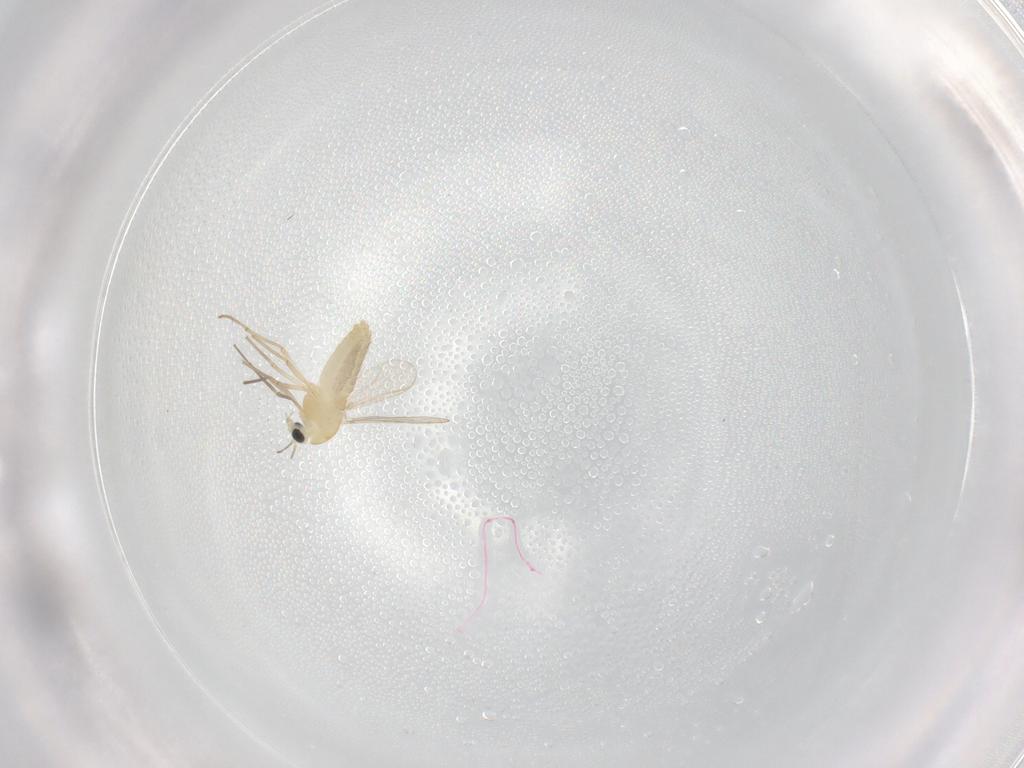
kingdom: Animalia
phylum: Arthropoda
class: Insecta
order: Diptera
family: Chironomidae
